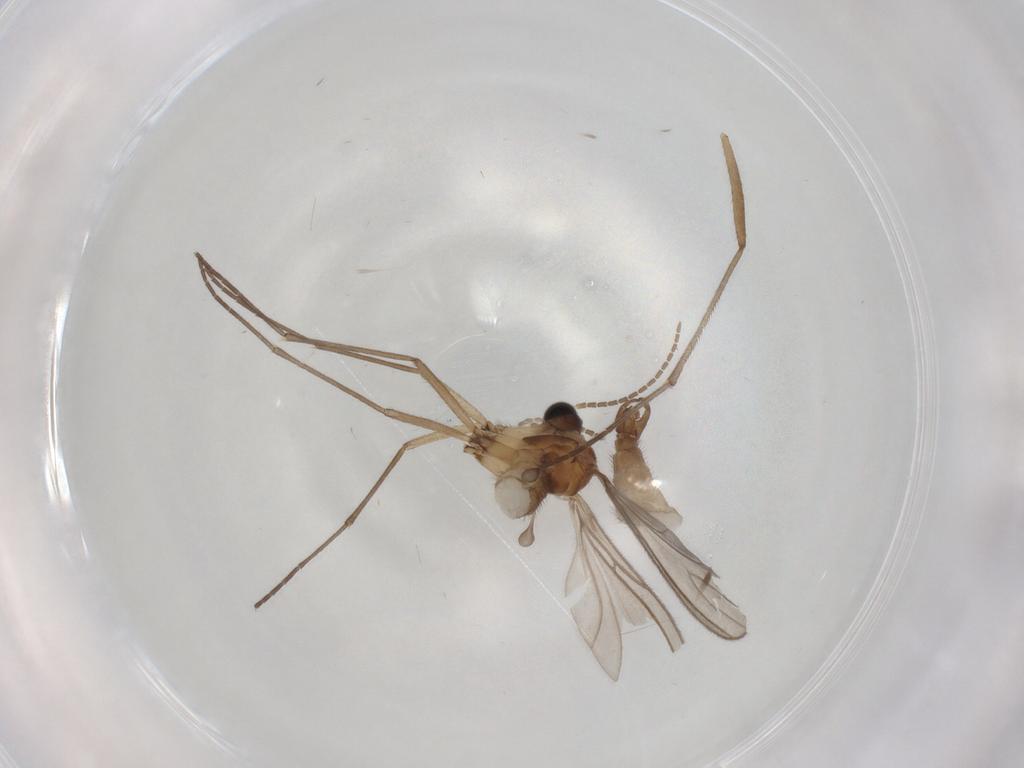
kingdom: Animalia
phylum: Arthropoda
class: Insecta
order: Diptera
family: Sciaridae
